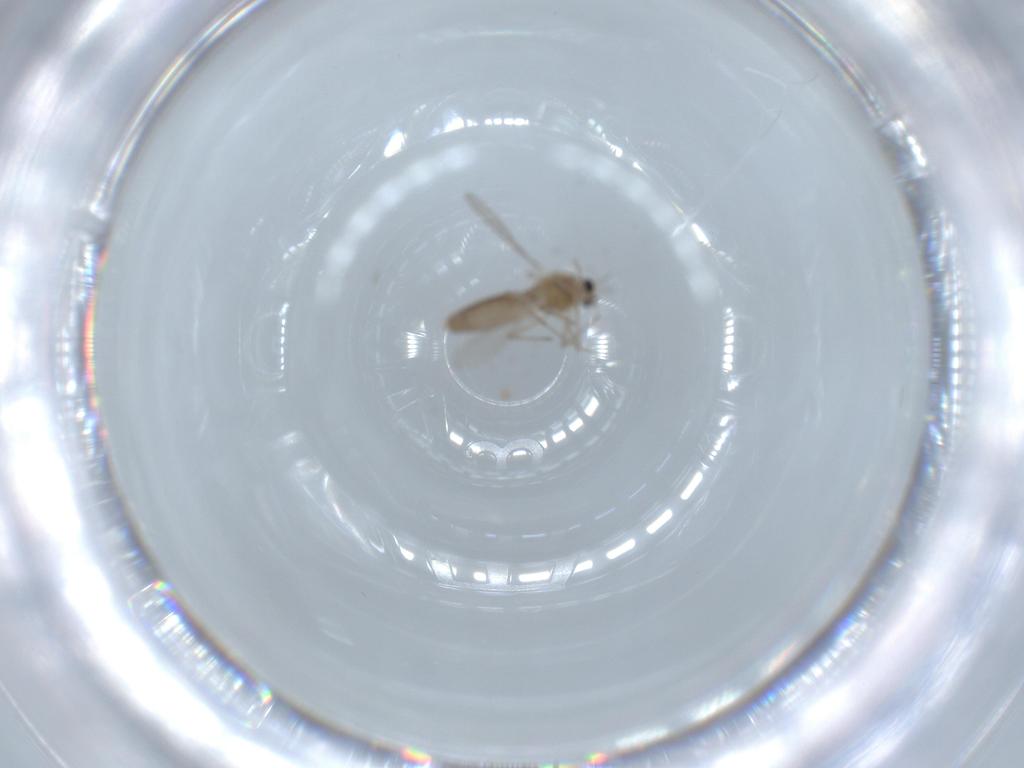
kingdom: Animalia
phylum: Arthropoda
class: Insecta
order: Diptera
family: Chironomidae
